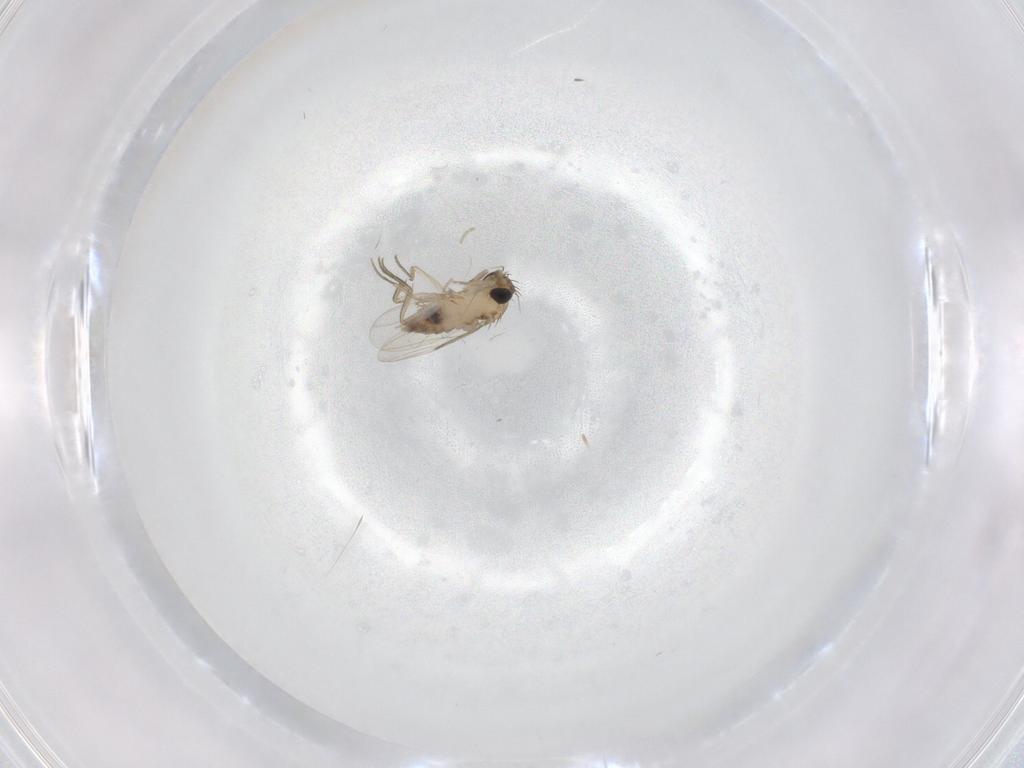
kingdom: Animalia
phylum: Arthropoda
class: Insecta
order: Diptera
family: Phoridae
